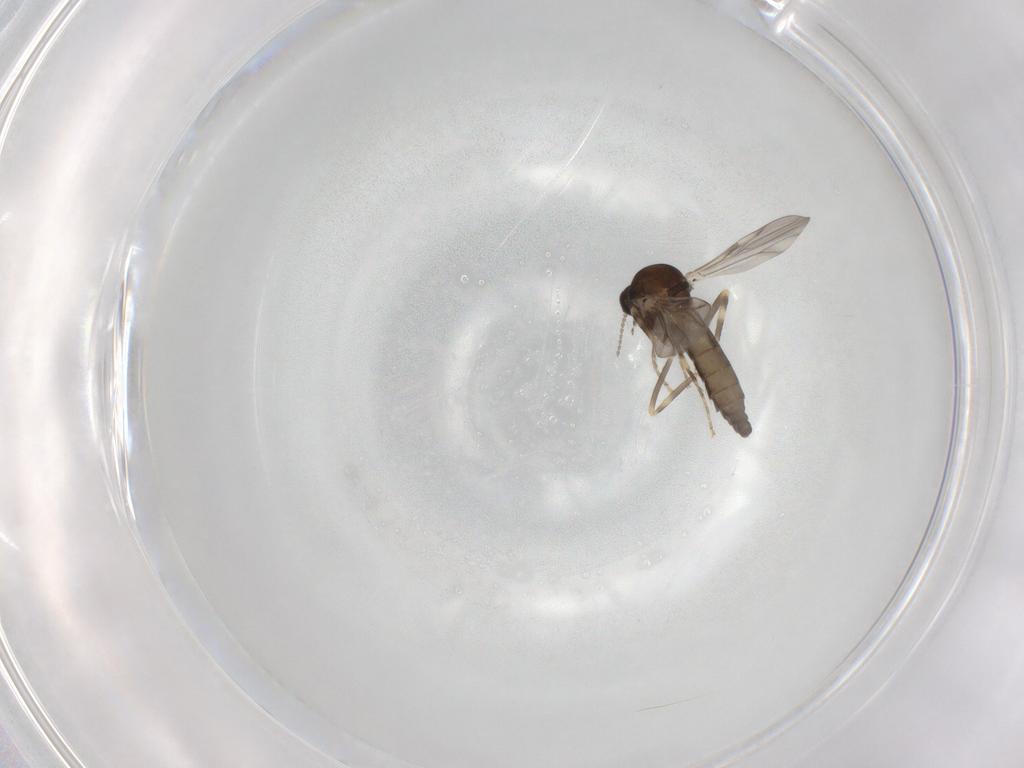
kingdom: Animalia
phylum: Arthropoda
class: Insecta
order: Diptera
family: Ceratopogonidae
